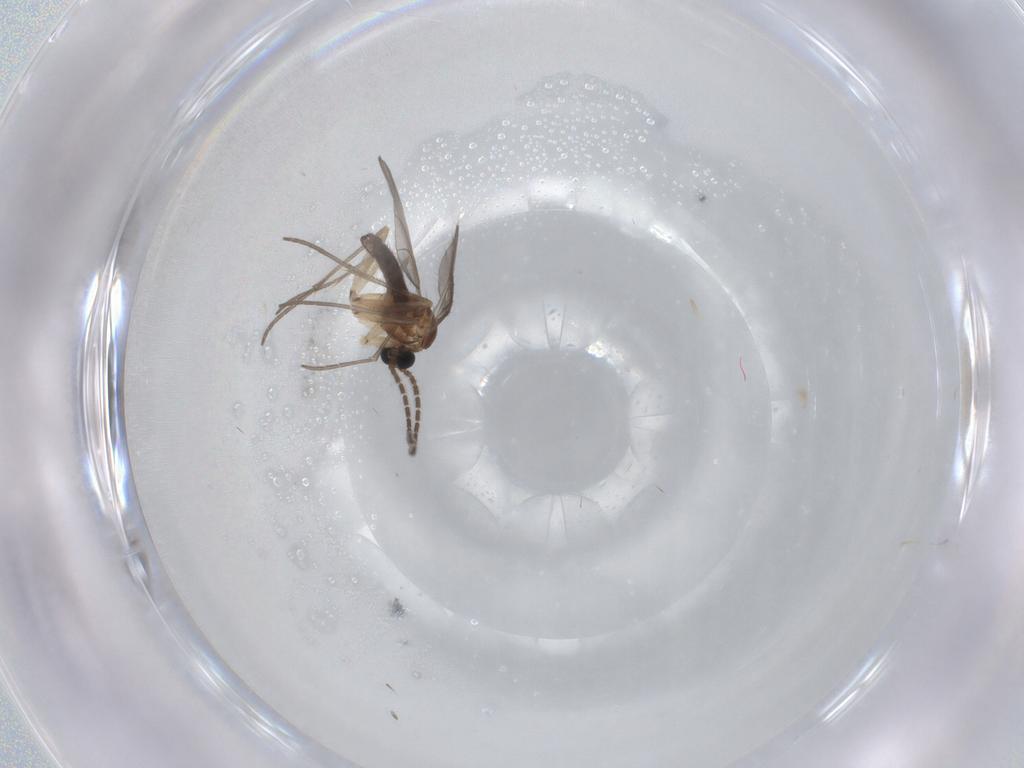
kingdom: Animalia
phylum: Arthropoda
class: Insecta
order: Diptera
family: Sciaridae
